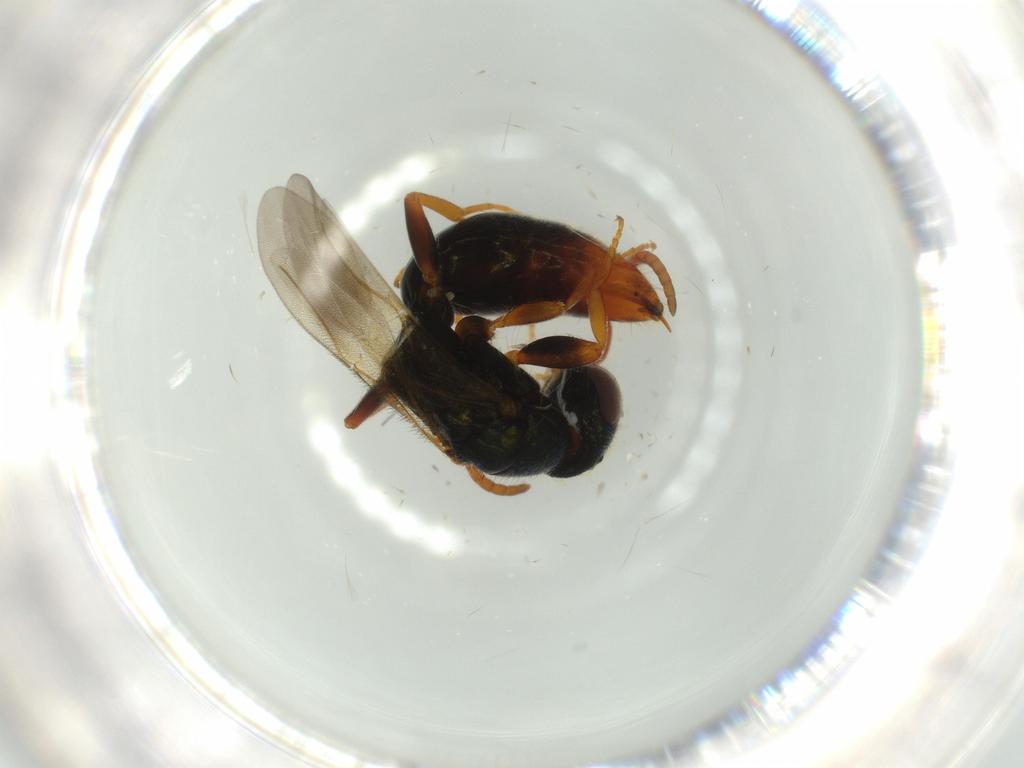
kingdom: Animalia
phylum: Arthropoda
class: Insecta
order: Hymenoptera
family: Bethylidae
